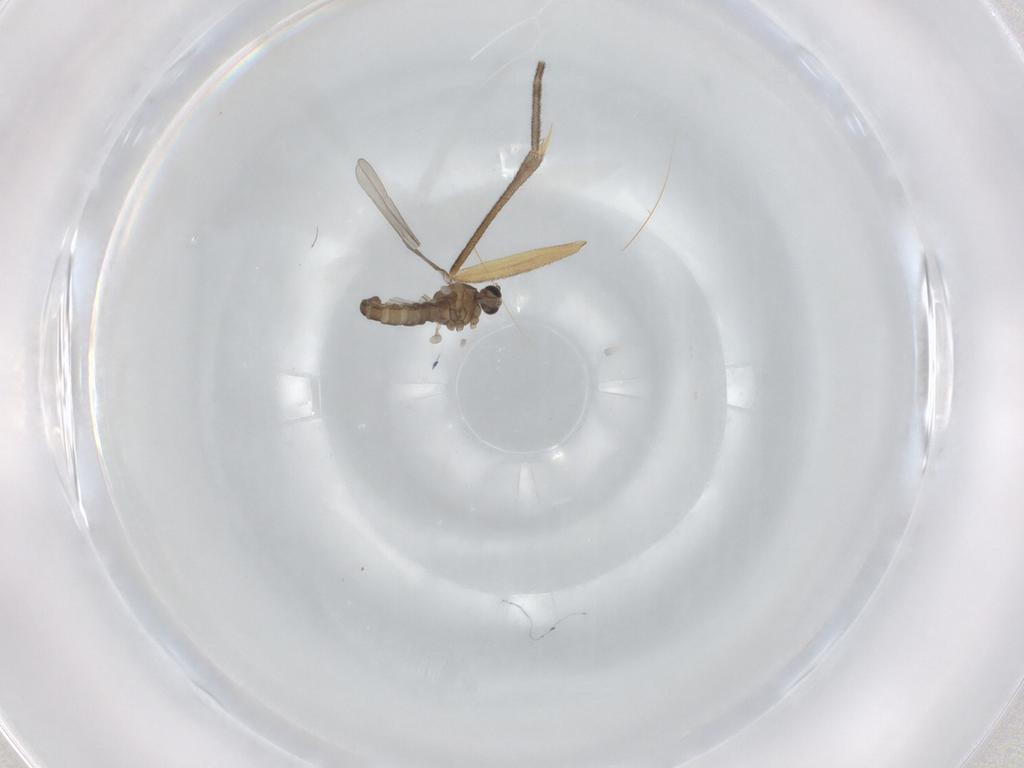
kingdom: Animalia
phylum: Arthropoda
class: Insecta
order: Diptera
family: Cecidomyiidae
